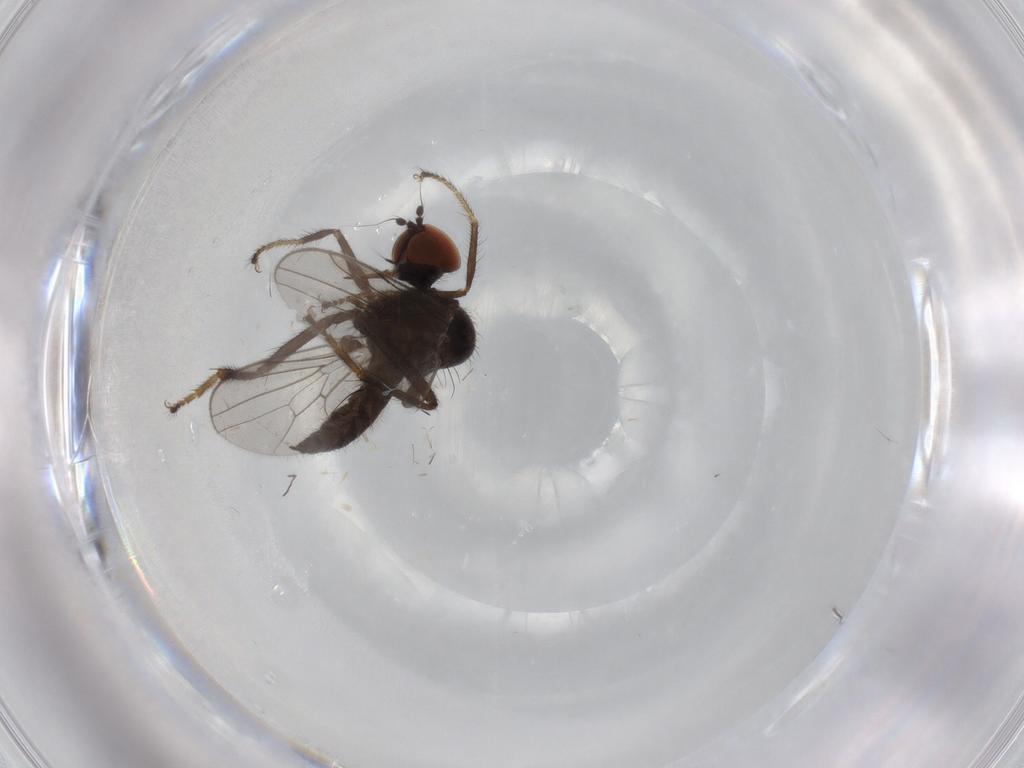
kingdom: Animalia
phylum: Arthropoda
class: Insecta
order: Diptera
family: Hybotidae
